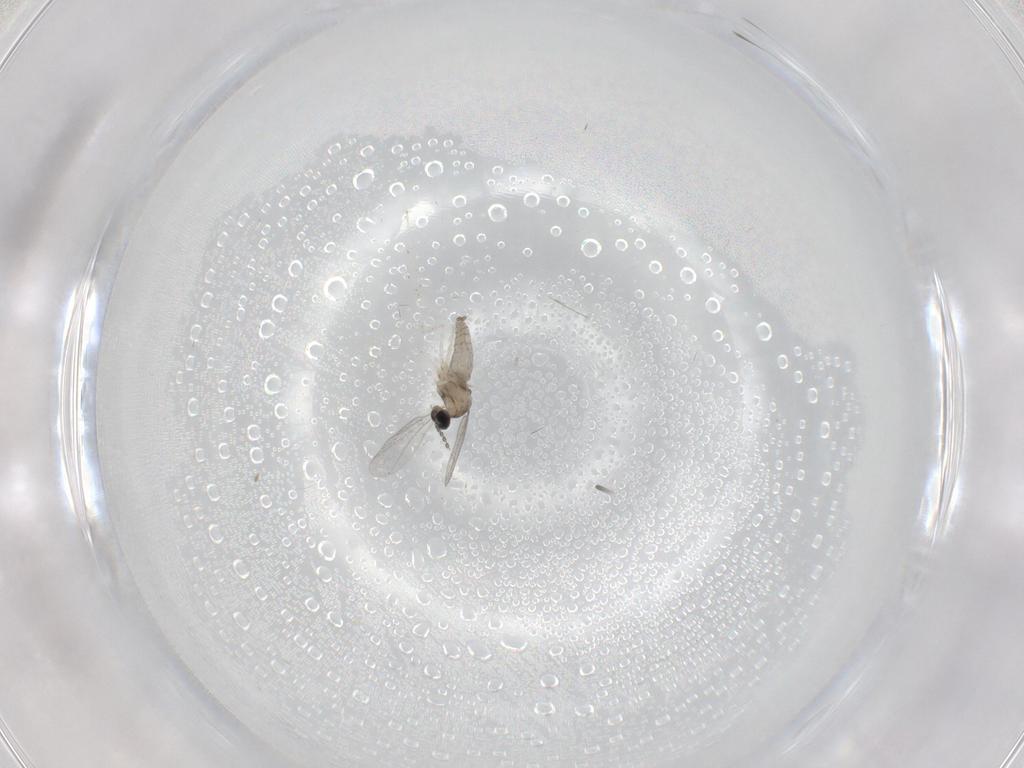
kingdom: Animalia
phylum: Arthropoda
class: Insecta
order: Diptera
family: Cecidomyiidae
